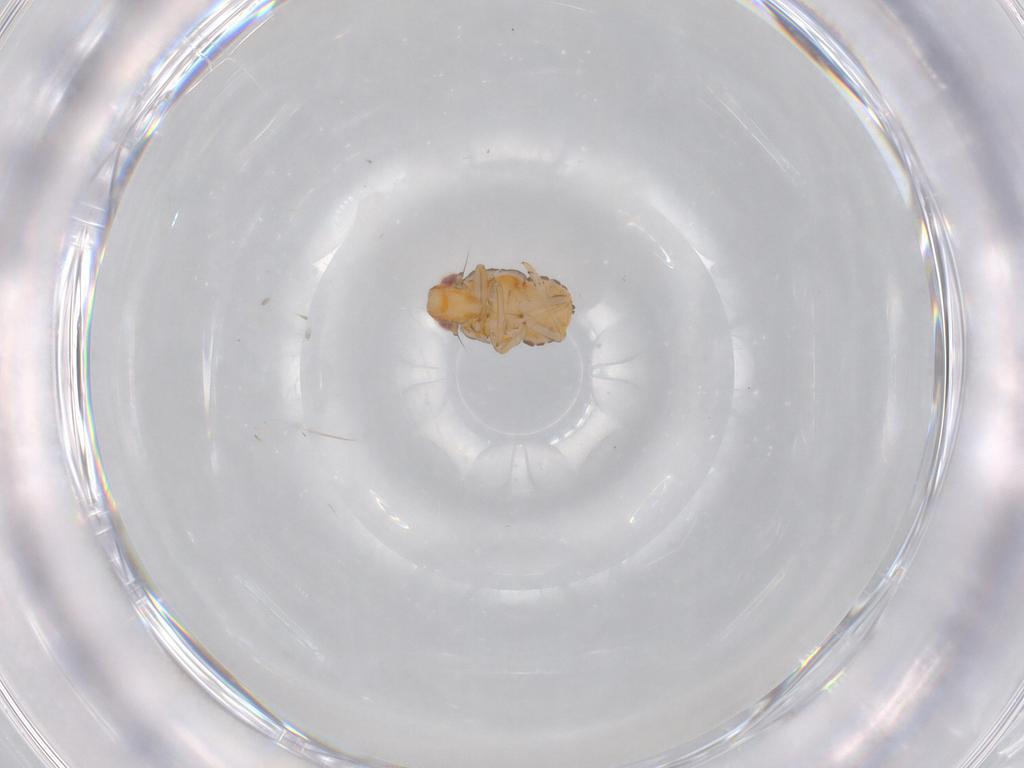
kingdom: Animalia
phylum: Arthropoda
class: Insecta
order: Hemiptera
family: Issidae
